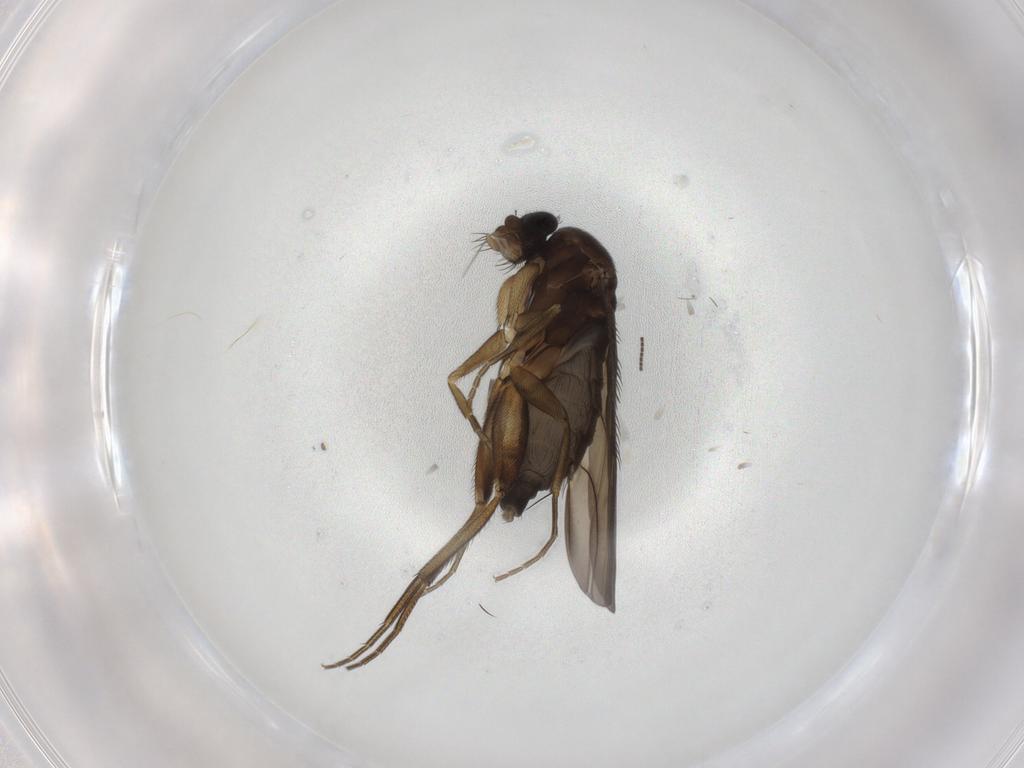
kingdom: Animalia
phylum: Arthropoda
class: Insecta
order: Diptera
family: Phoridae
